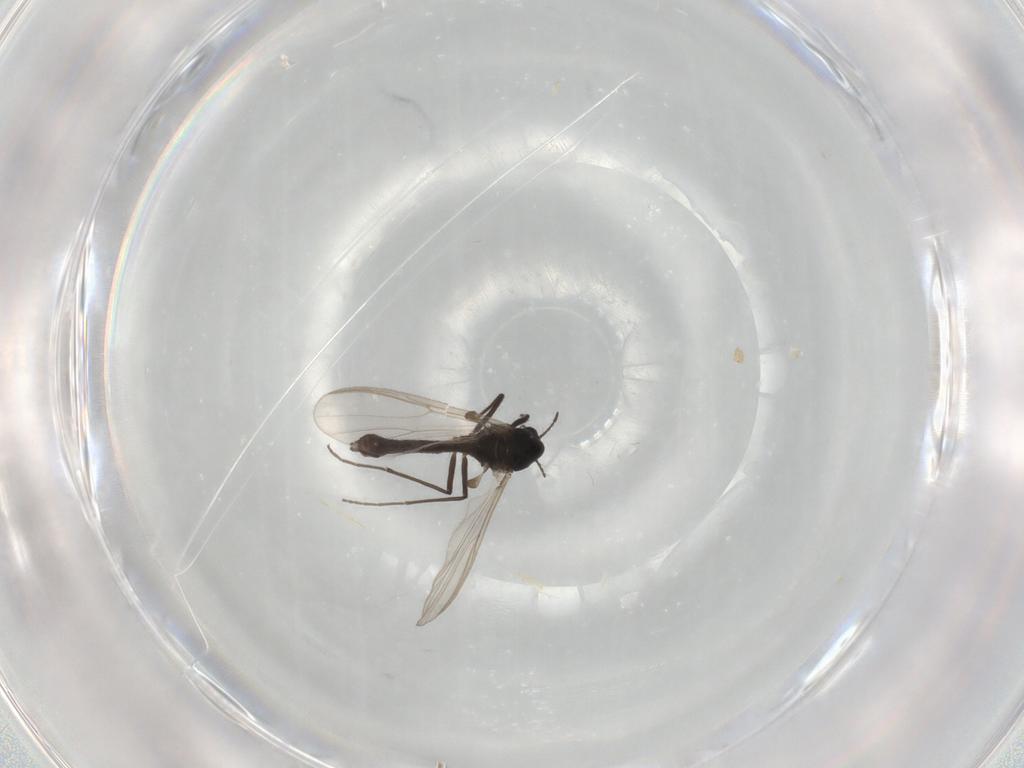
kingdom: Animalia
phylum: Arthropoda
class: Insecta
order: Diptera
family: Chironomidae
